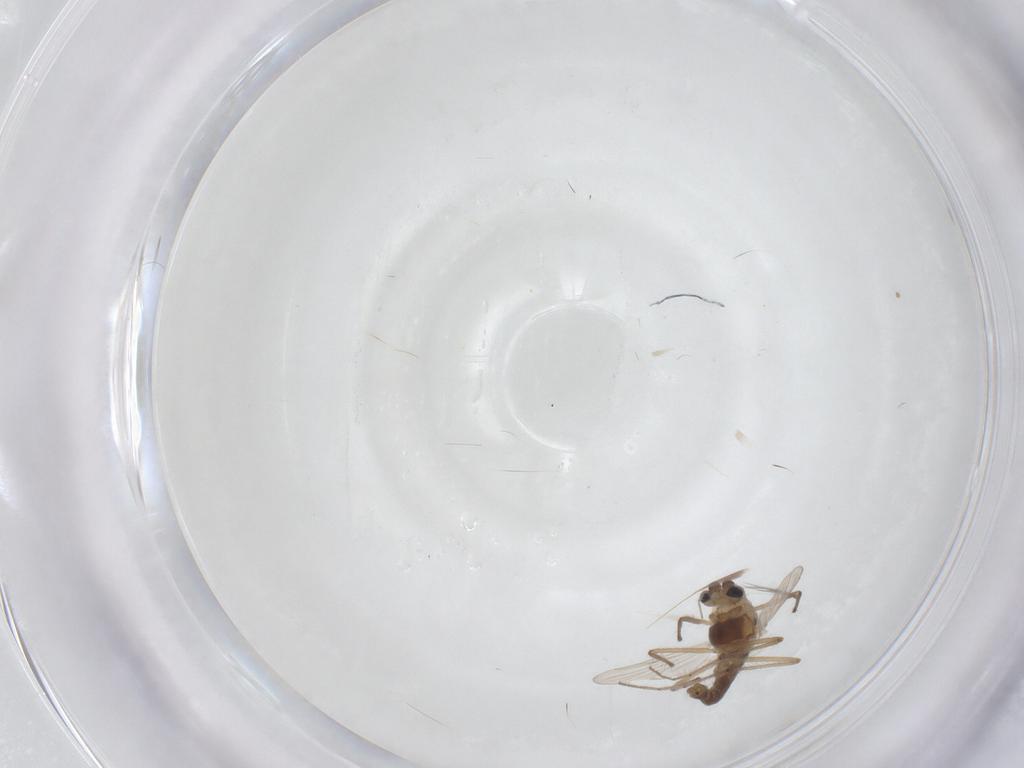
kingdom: Animalia
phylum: Arthropoda
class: Insecta
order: Diptera
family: Chironomidae
